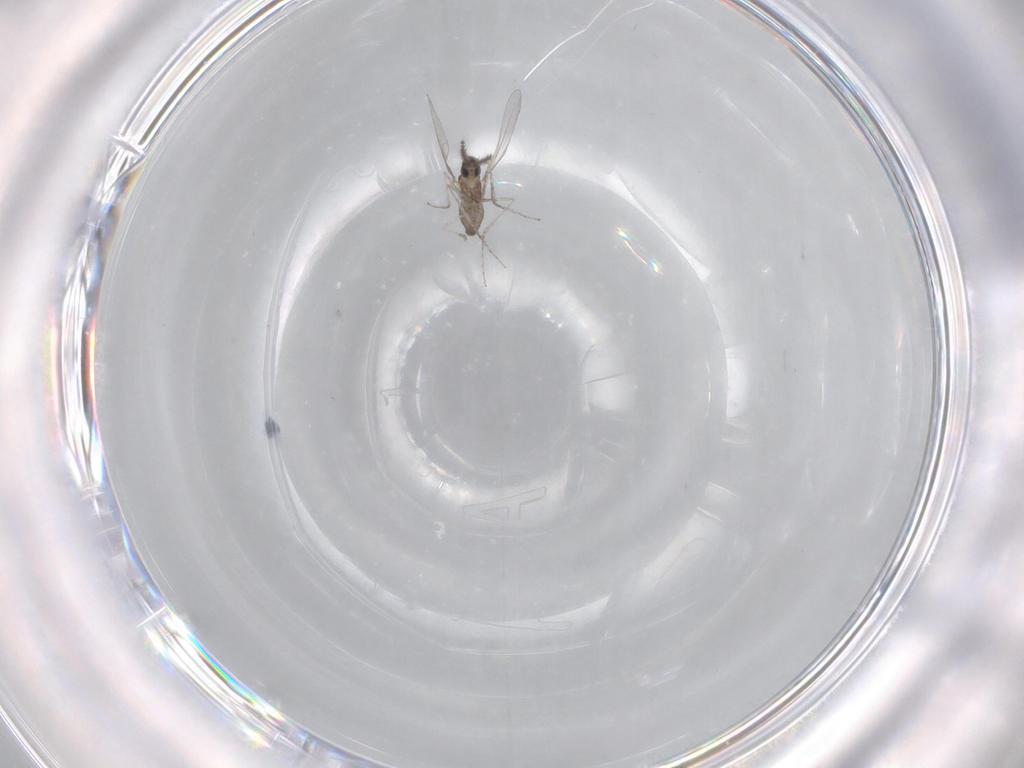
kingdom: Animalia
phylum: Arthropoda
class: Insecta
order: Diptera
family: Cecidomyiidae
